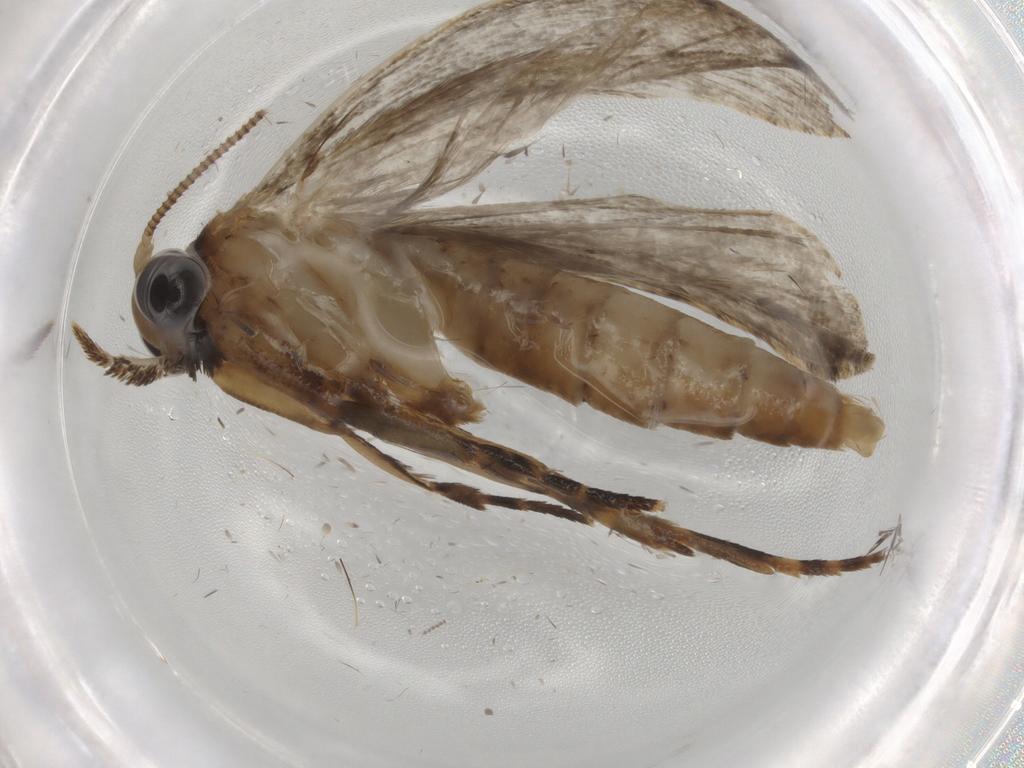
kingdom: Animalia
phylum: Arthropoda
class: Insecta
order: Lepidoptera
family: Tineidae
